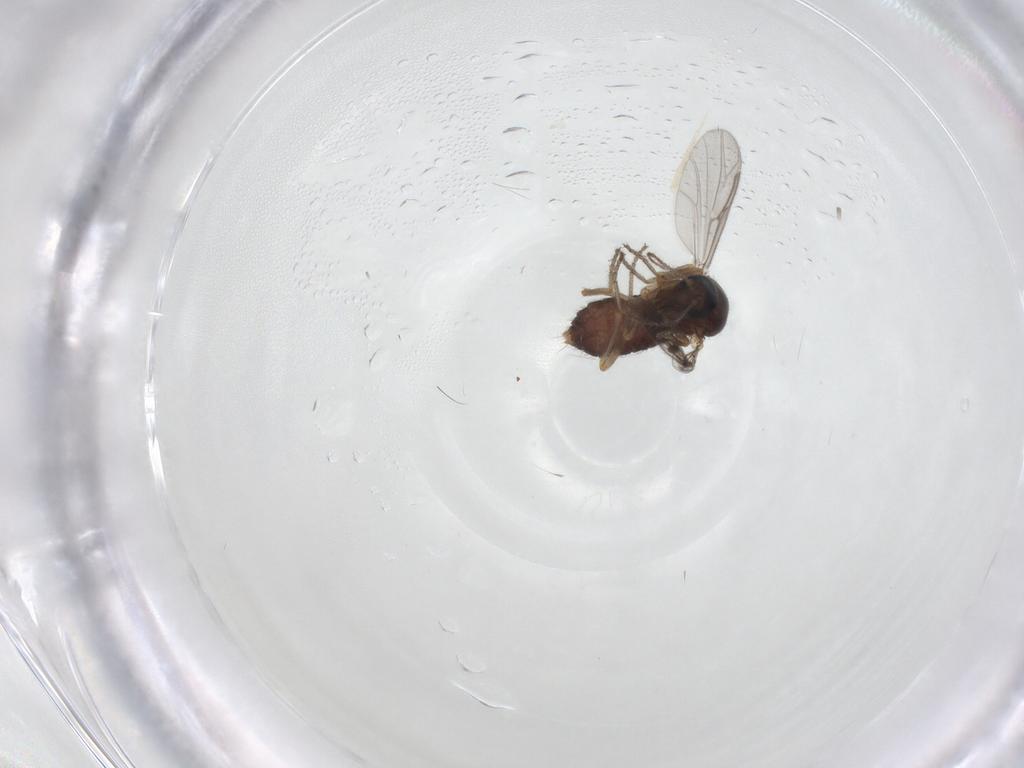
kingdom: Animalia
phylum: Arthropoda
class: Insecta
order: Diptera
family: Ceratopogonidae
